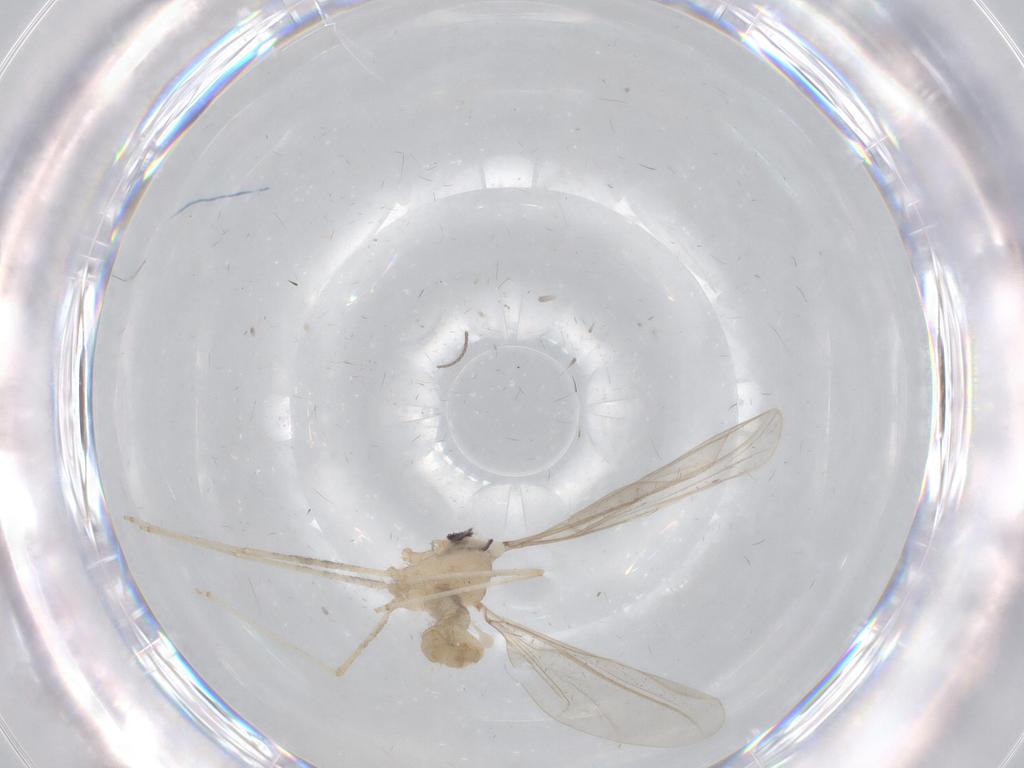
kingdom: Animalia
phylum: Arthropoda
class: Insecta
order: Diptera
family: Cecidomyiidae
